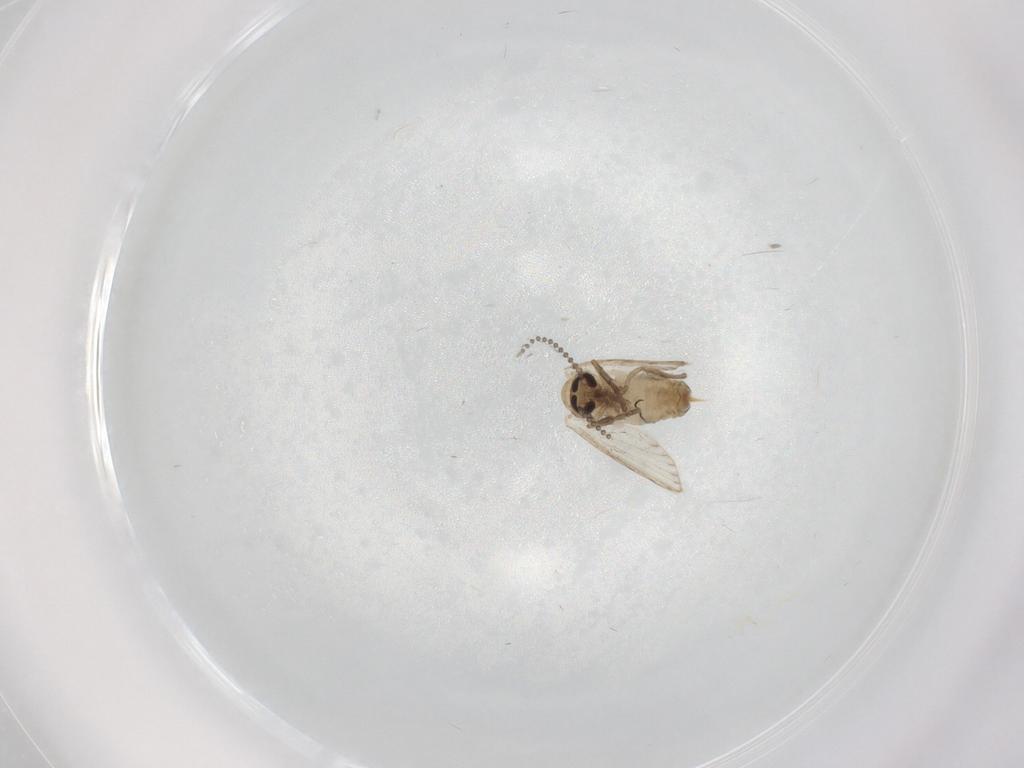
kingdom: Animalia
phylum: Arthropoda
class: Insecta
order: Diptera
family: Psychodidae
